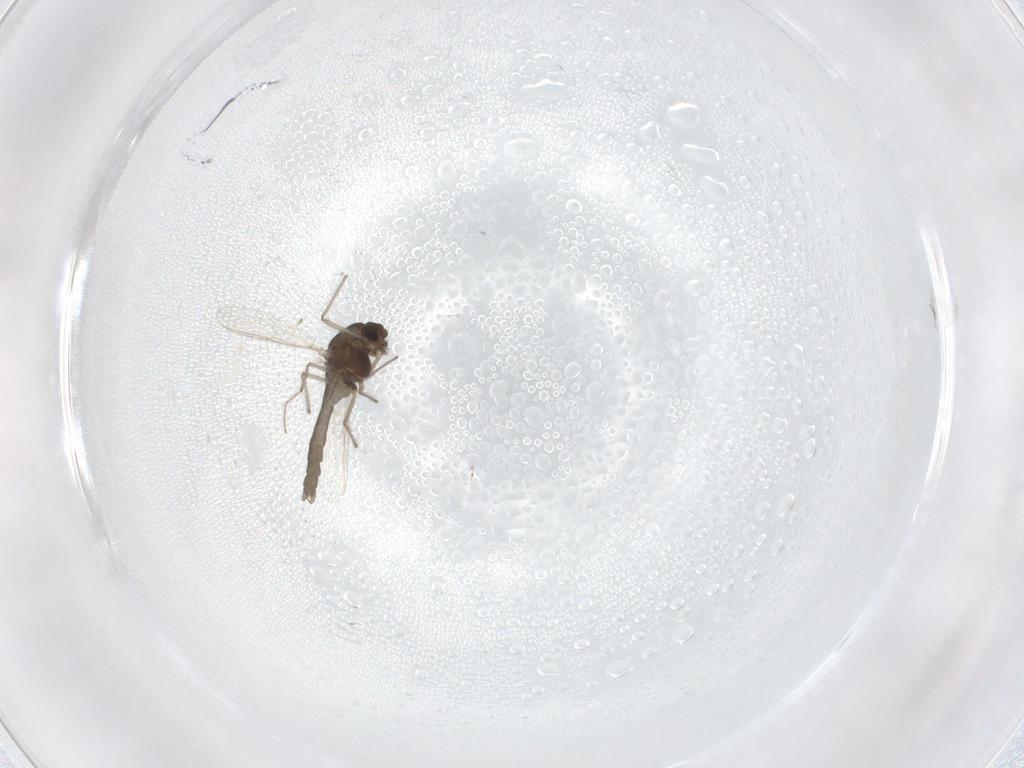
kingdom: Animalia
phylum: Arthropoda
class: Insecta
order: Diptera
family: Chironomidae
